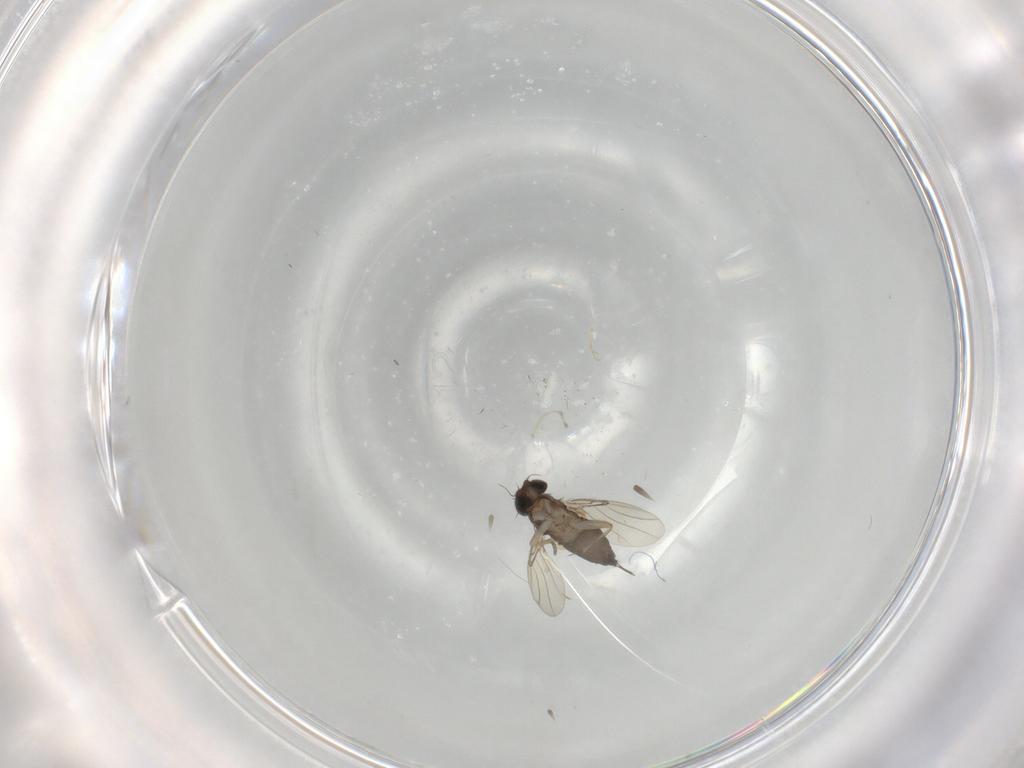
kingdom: Animalia
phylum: Arthropoda
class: Insecta
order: Diptera
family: Phoridae
